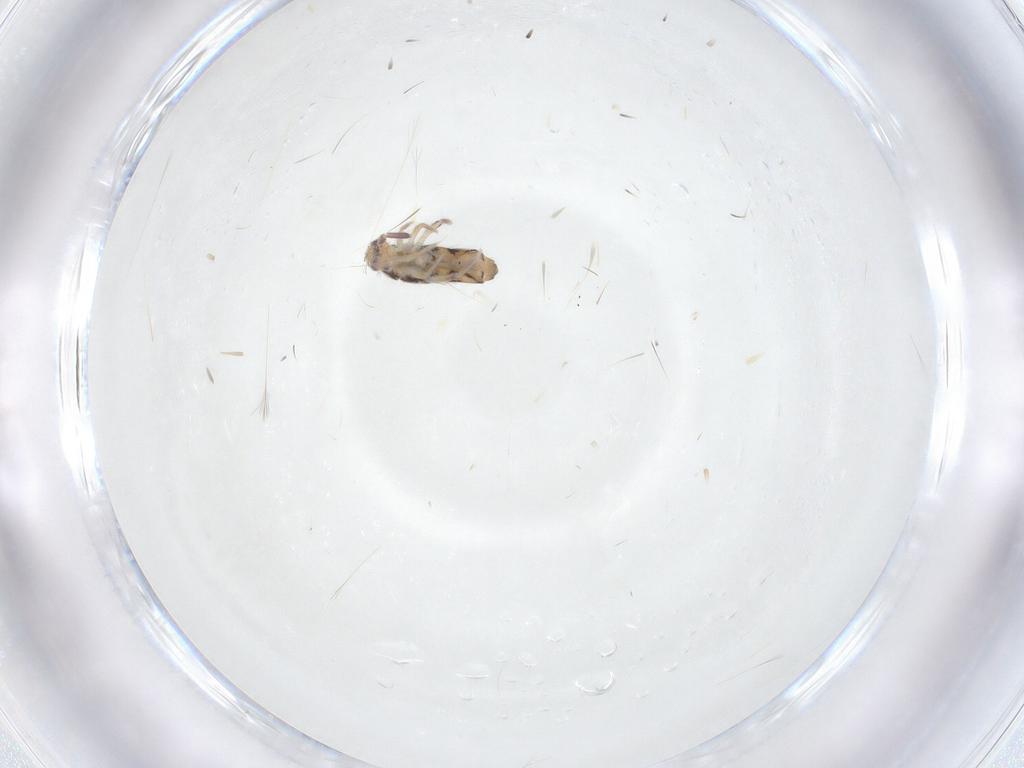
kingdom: Animalia
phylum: Arthropoda
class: Collembola
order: Entomobryomorpha
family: Entomobryidae
